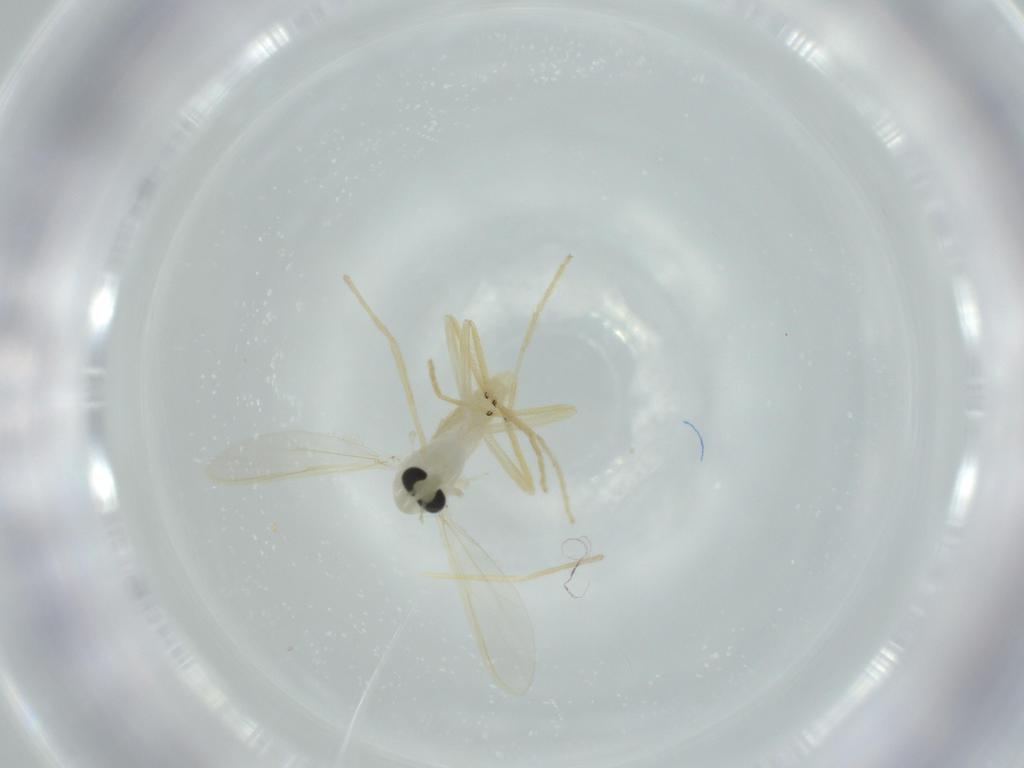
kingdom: Animalia
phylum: Arthropoda
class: Insecta
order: Diptera
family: Chironomidae
